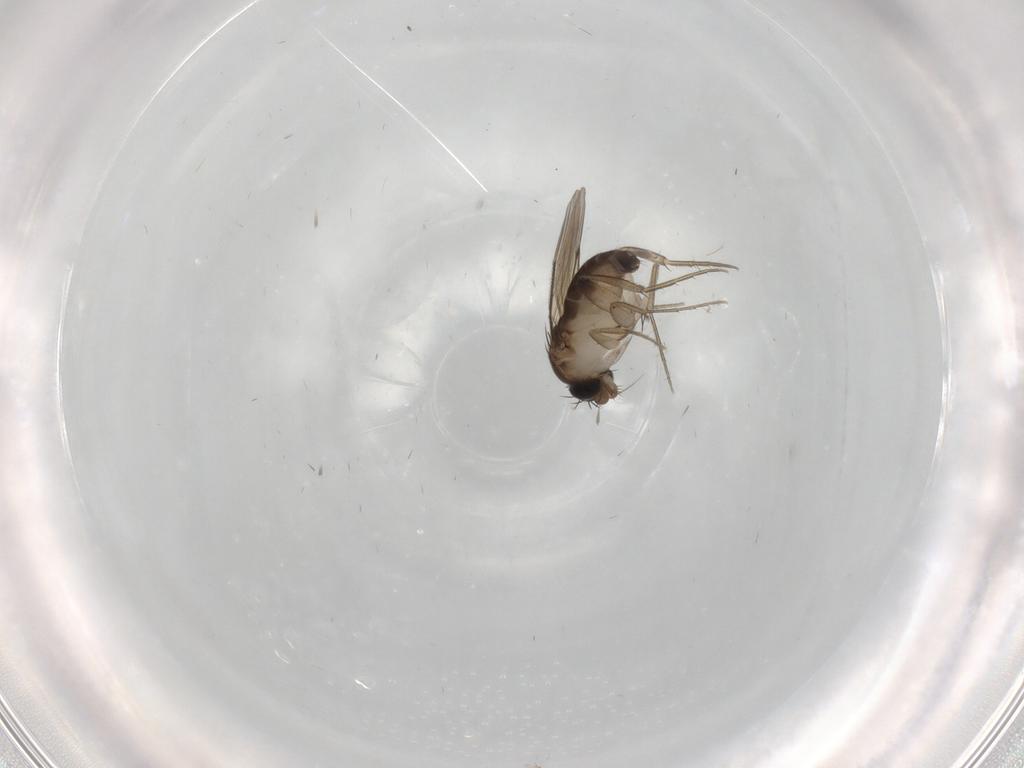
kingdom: Animalia
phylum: Arthropoda
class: Insecta
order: Diptera
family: Phoridae
